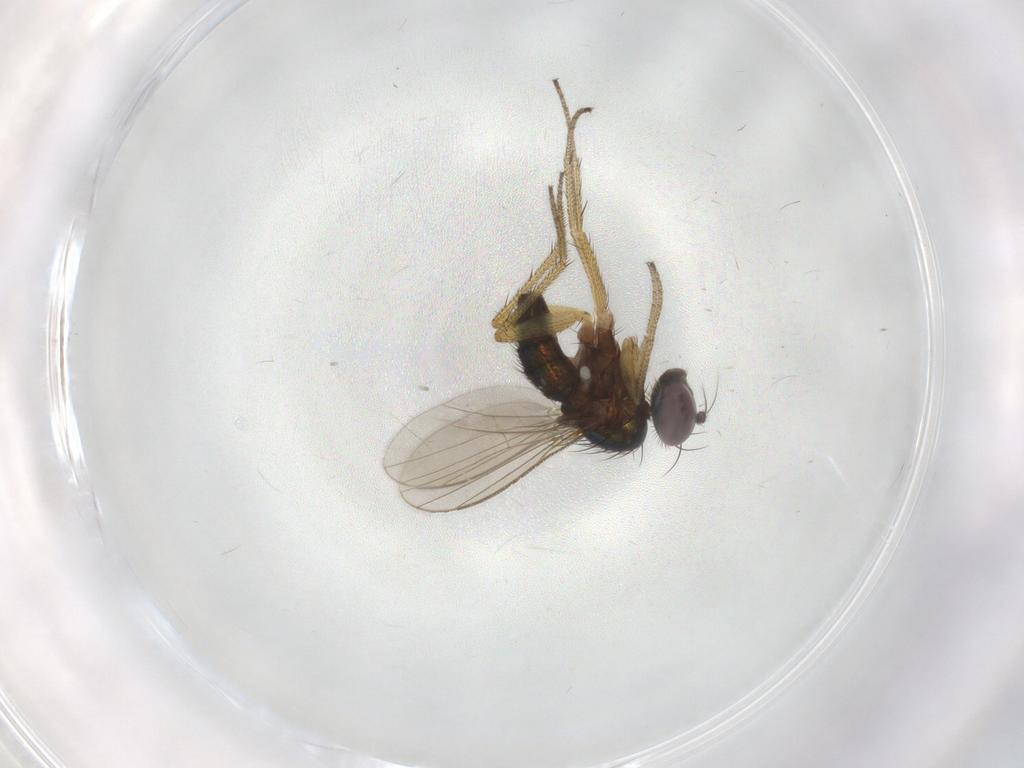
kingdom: Animalia
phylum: Arthropoda
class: Insecta
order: Diptera
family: Dolichopodidae
